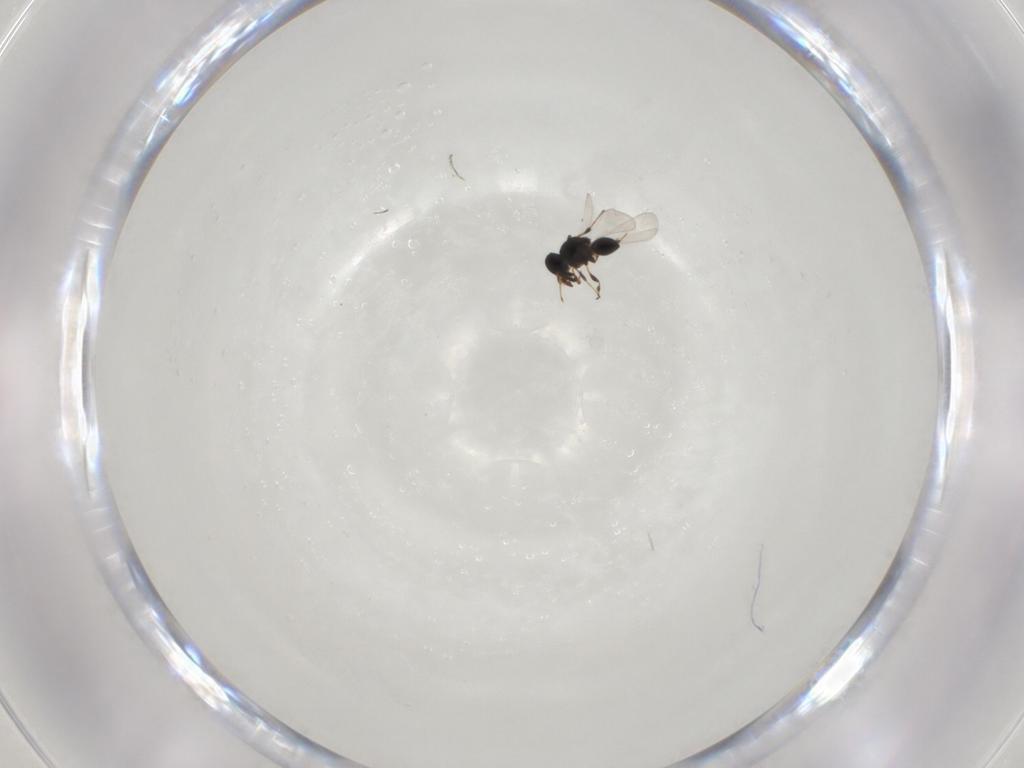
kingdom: Animalia
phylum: Arthropoda
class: Insecta
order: Hymenoptera
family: Platygastridae
